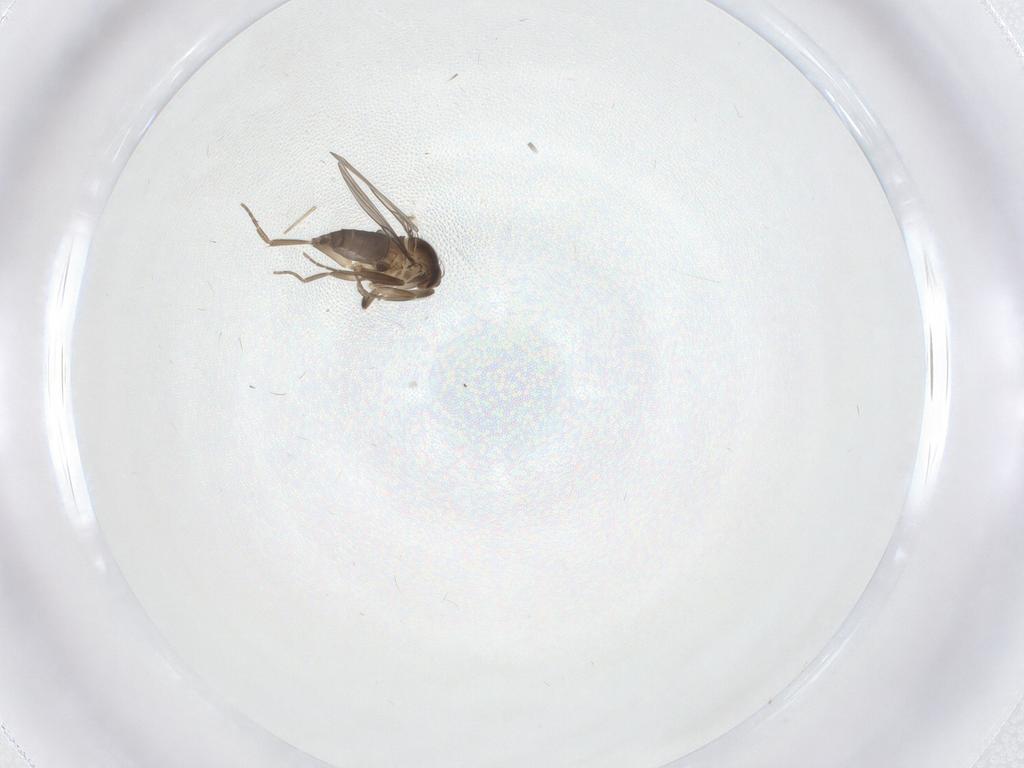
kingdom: Animalia
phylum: Arthropoda
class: Insecta
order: Diptera
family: Phoridae
